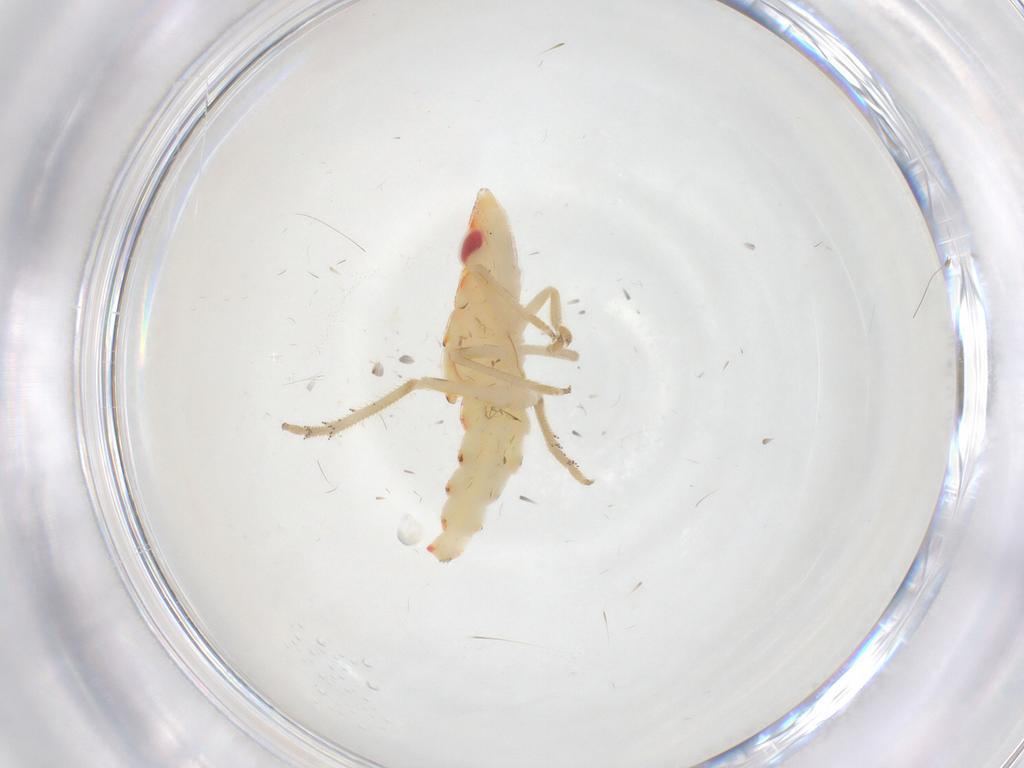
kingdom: Animalia
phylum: Arthropoda
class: Insecta
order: Hemiptera
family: Tropiduchidae
